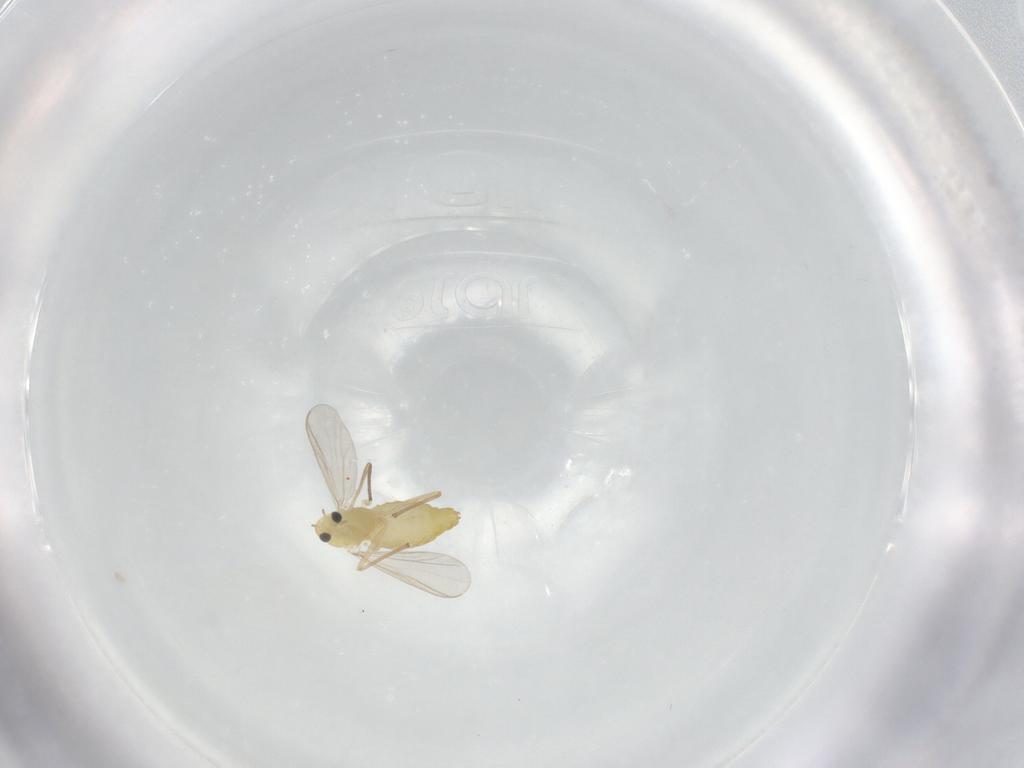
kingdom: Animalia
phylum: Arthropoda
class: Insecta
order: Diptera
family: Chironomidae
